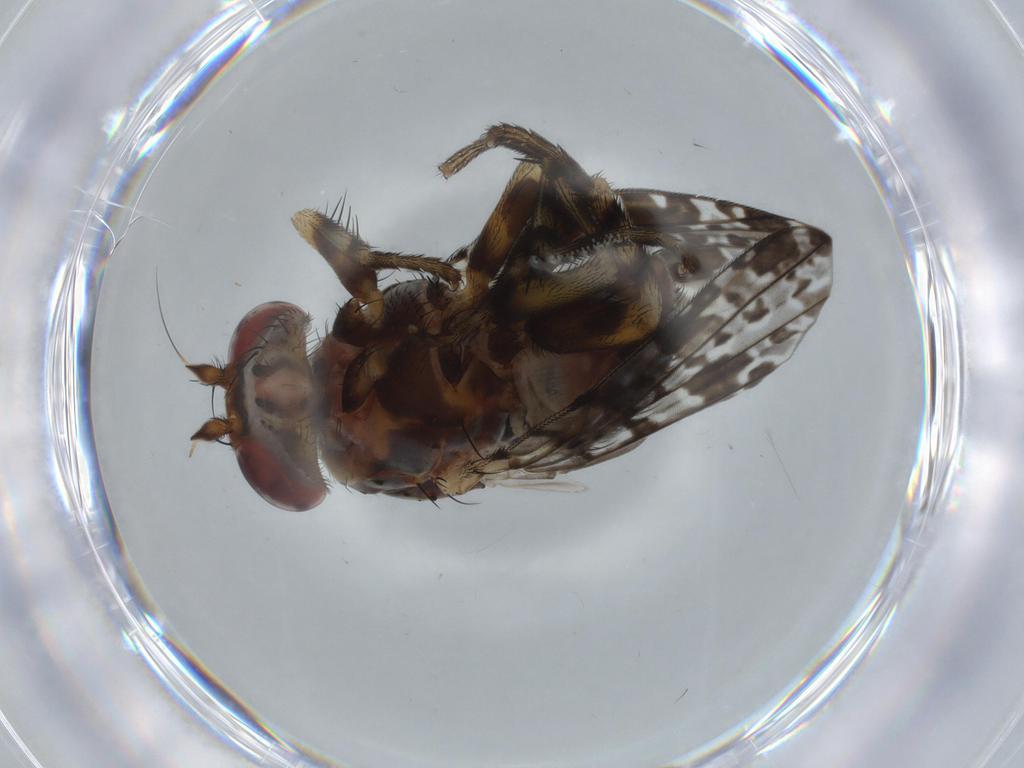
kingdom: Animalia
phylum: Arthropoda
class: Insecta
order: Diptera
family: Odiniidae
